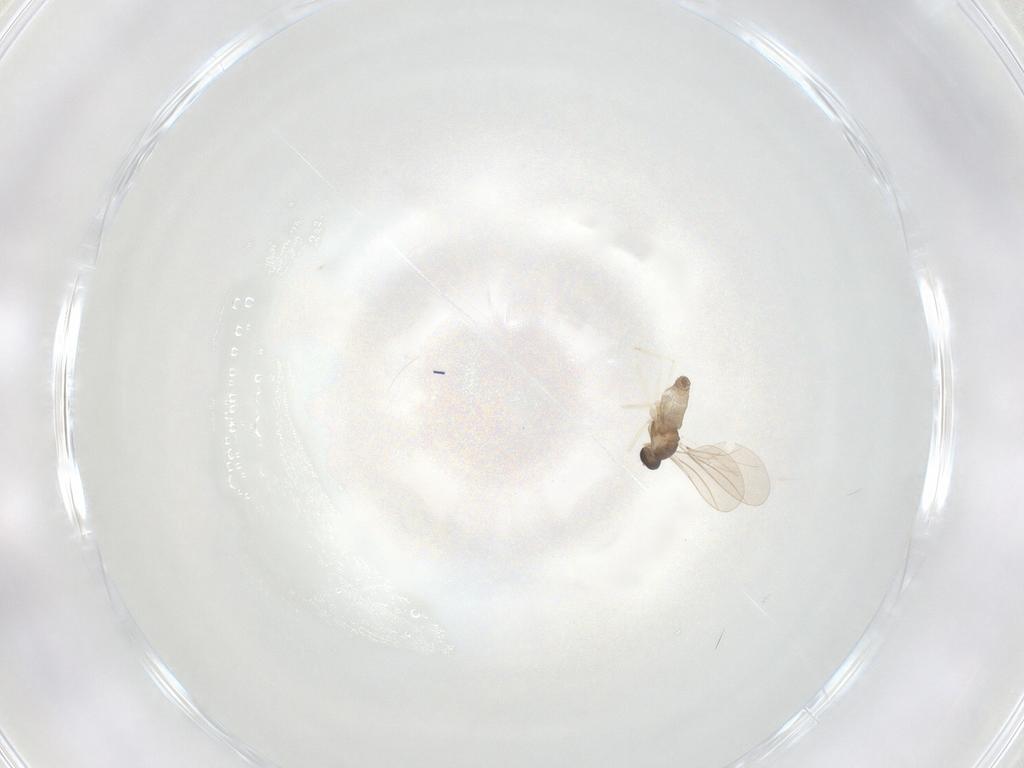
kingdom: Animalia
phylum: Arthropoda
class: Insecta
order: Diptera
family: Cecidomyiidae
